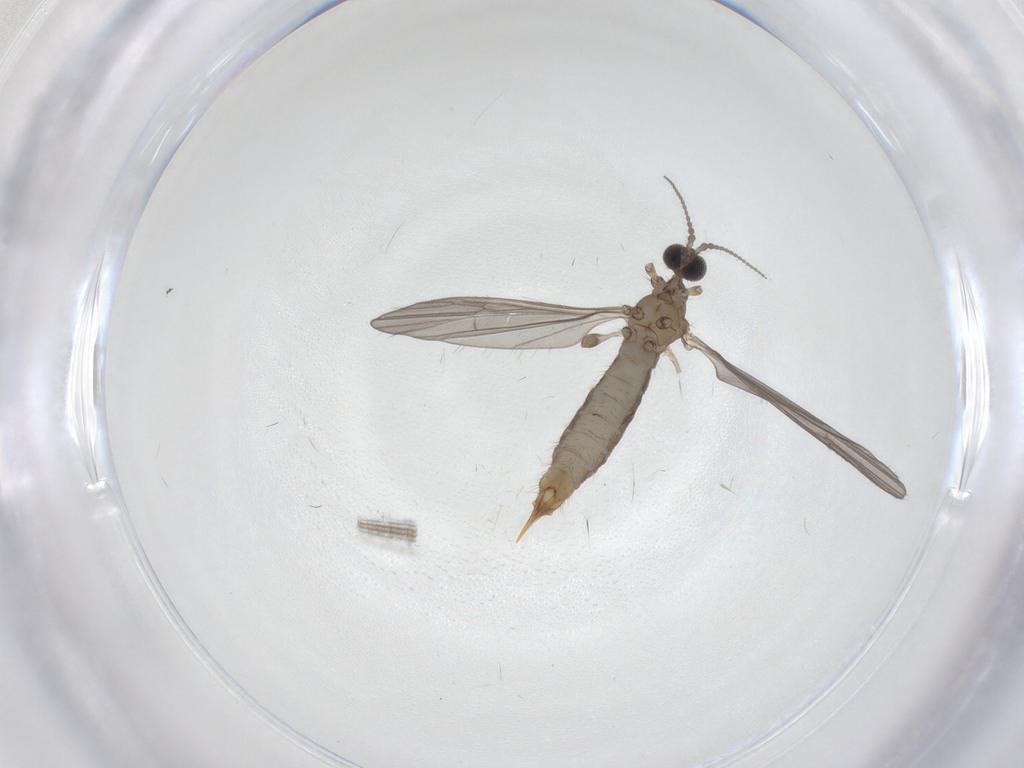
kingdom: Animalia
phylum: Arthropoda
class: Insecta
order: Diptera
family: Limoniidae
